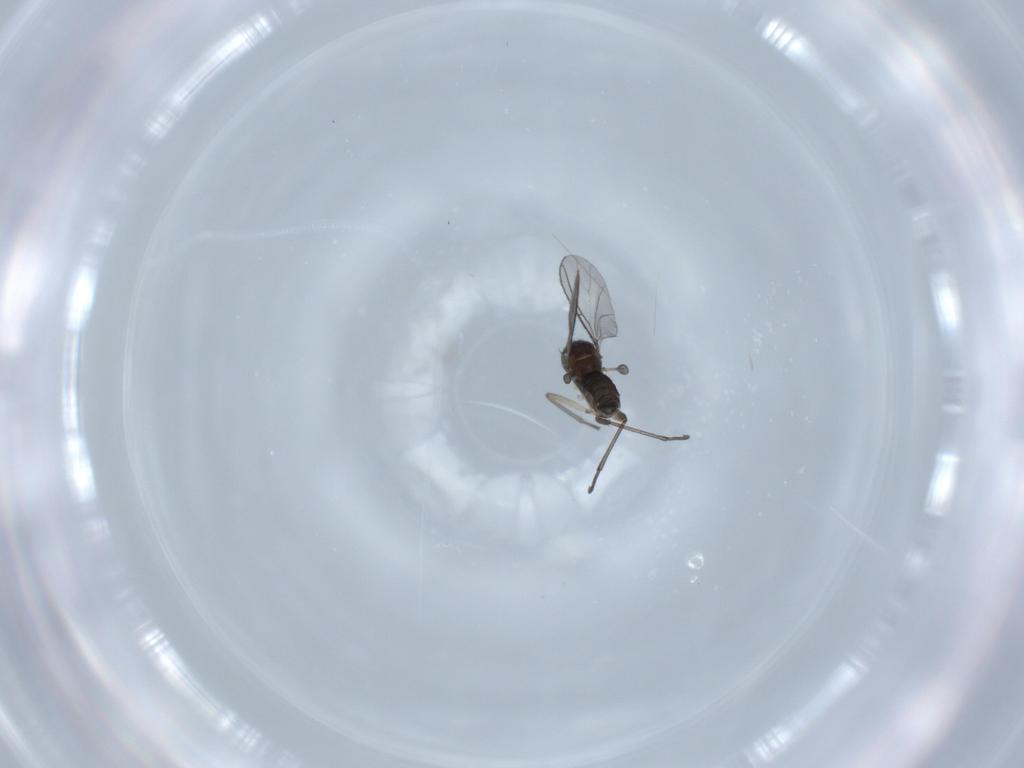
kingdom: Animalia
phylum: Arthropoda
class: Insecta
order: Diptera
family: Sciaridae
